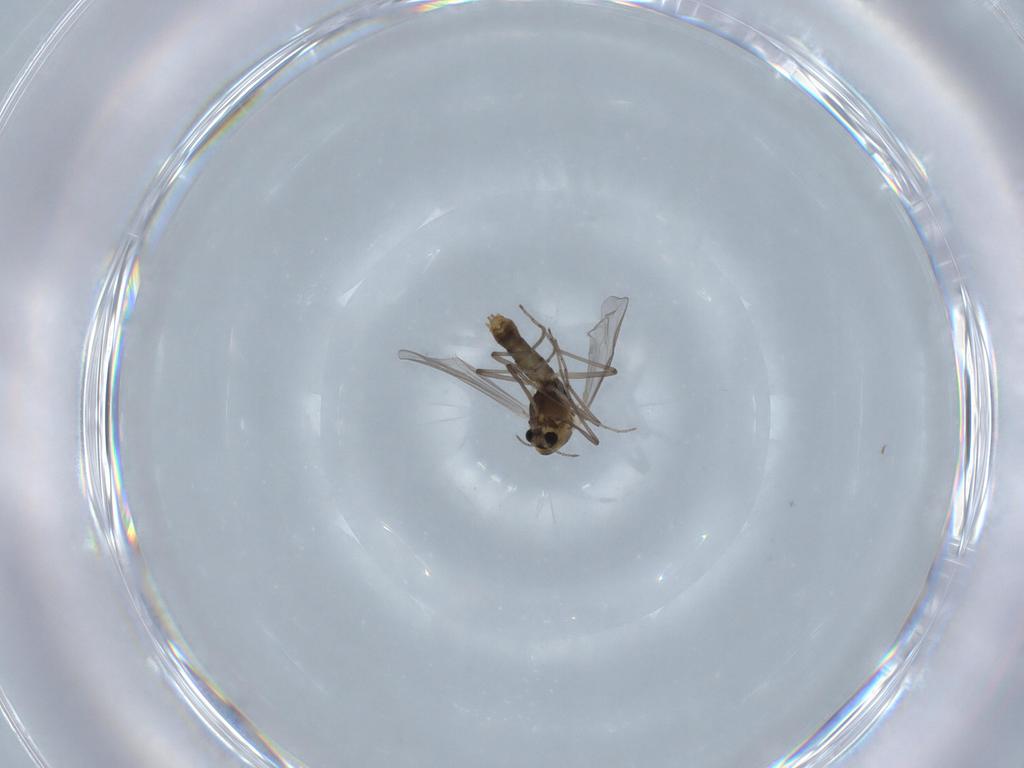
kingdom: Animalia
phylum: Arthropoda
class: Insecta
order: Diptera
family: Chironomidae
